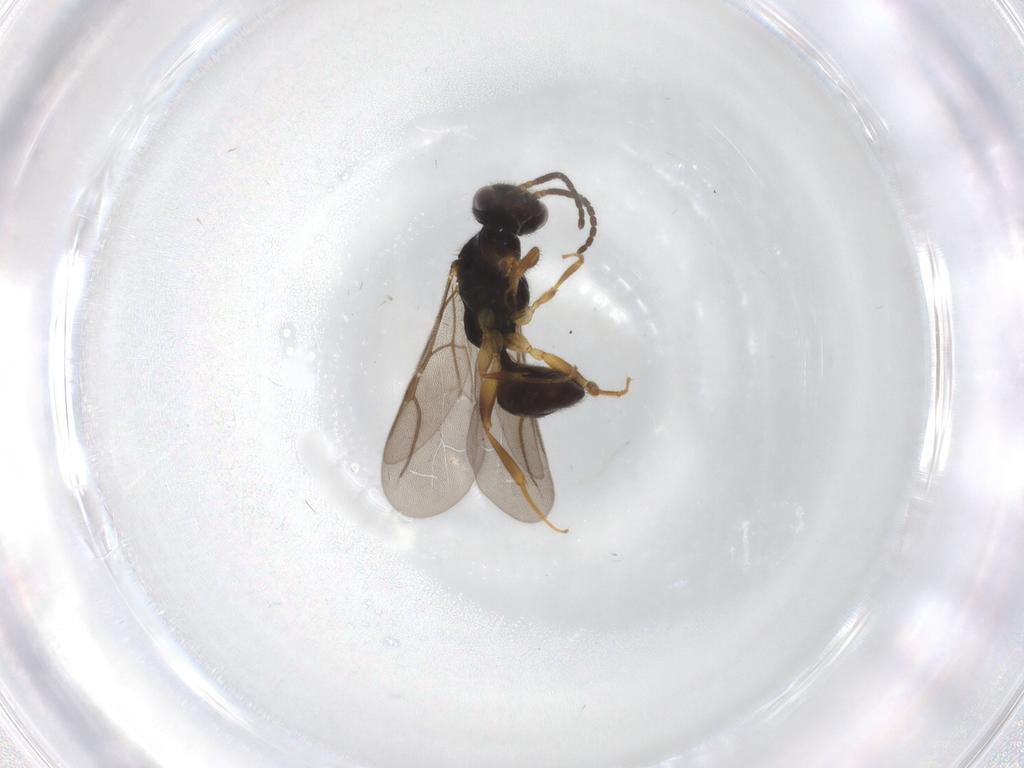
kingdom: Animalia
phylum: Arthropoda
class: Insecta
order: Hymenoptera
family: Bethylidae
